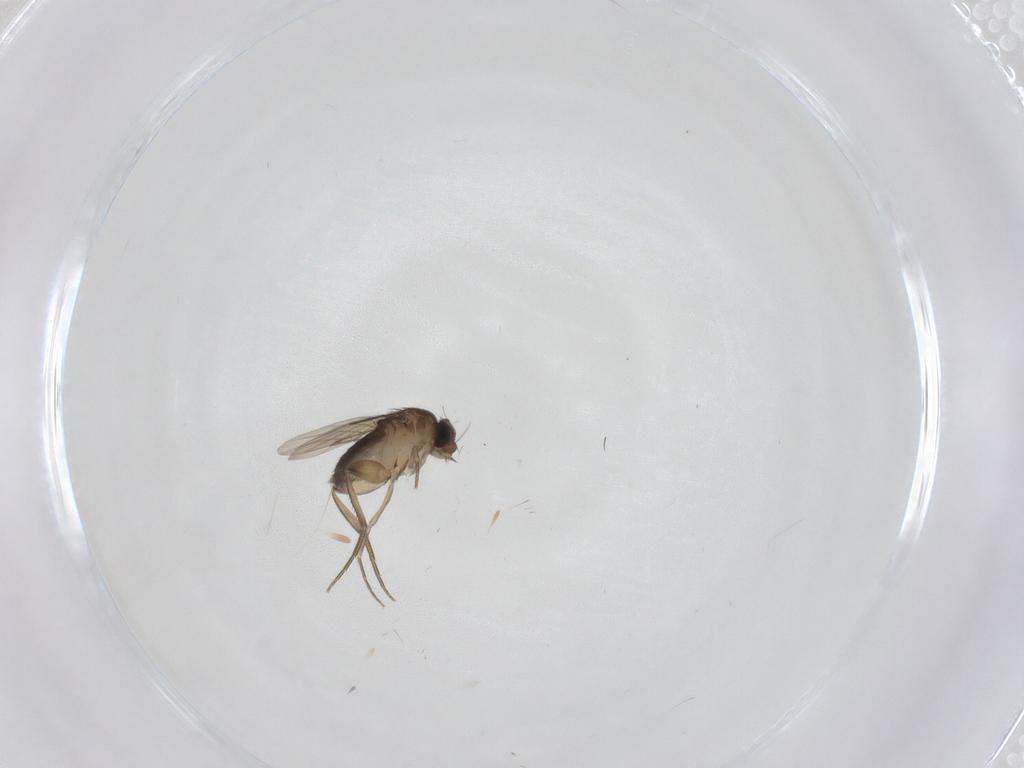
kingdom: Animalia
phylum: Arthropoda
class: Insecta
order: Diptera
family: Phoridae
